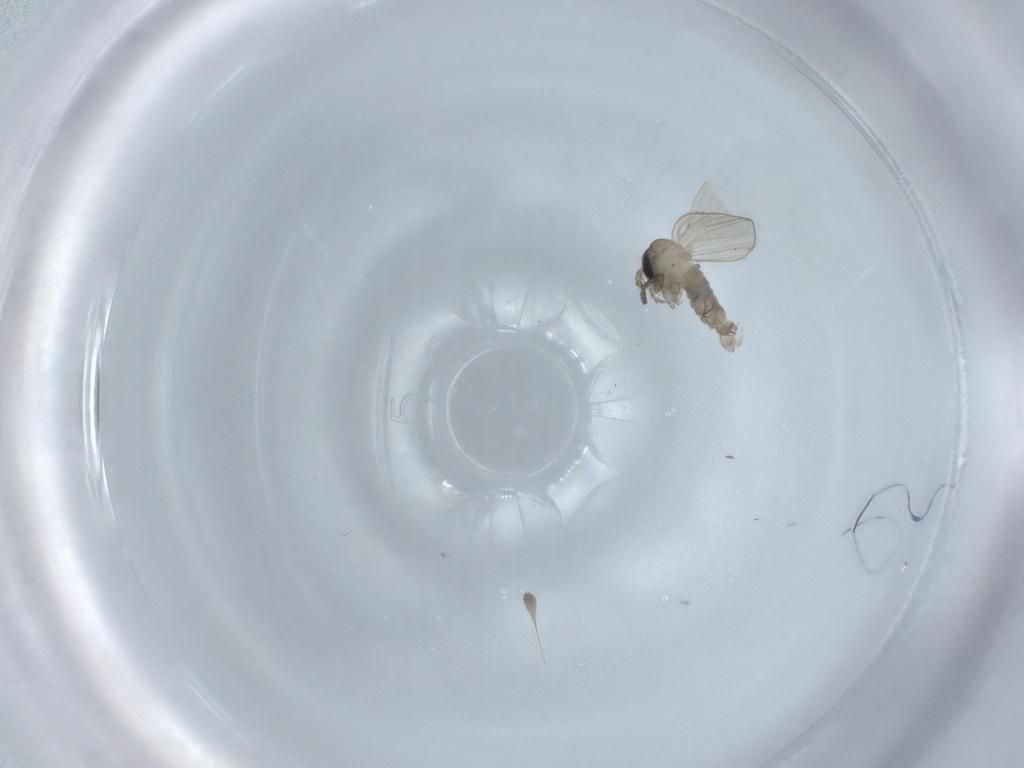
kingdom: Animalia
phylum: Arthropoda
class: Insecta
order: Diptera
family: Psychodidae
